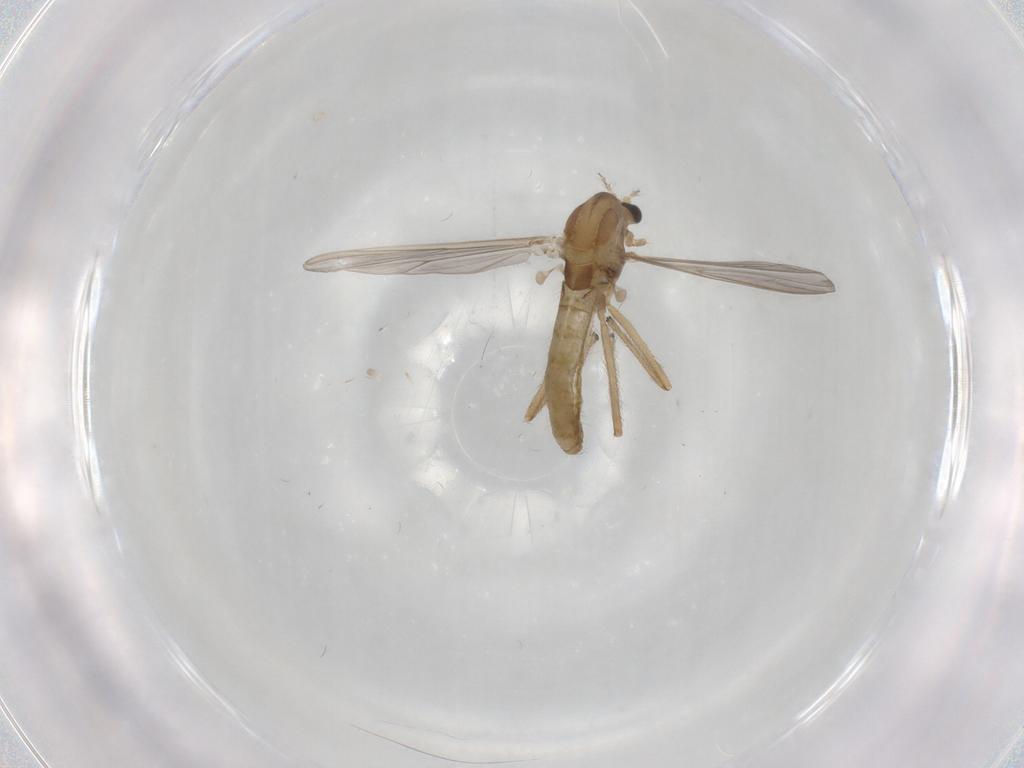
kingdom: Animalia
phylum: Arthropoda
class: Insecta
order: Diptera
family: Chironomidae
